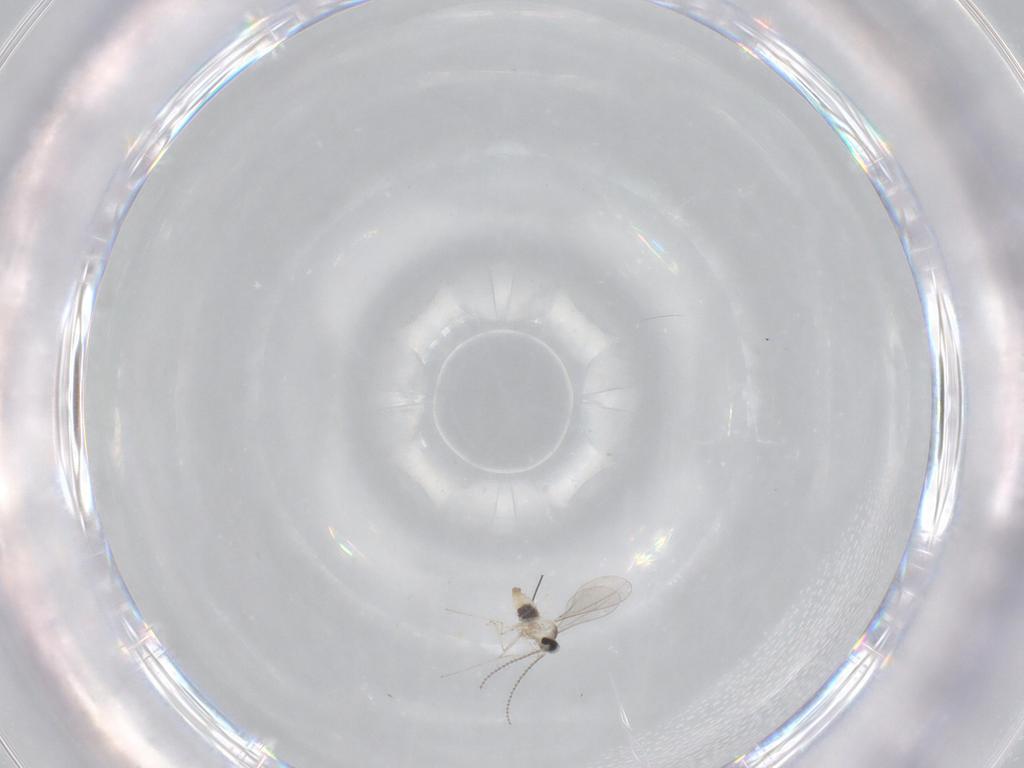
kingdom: Animalia
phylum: Arthropoda
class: Insecta
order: Diptera
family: Cecidomyiidae
